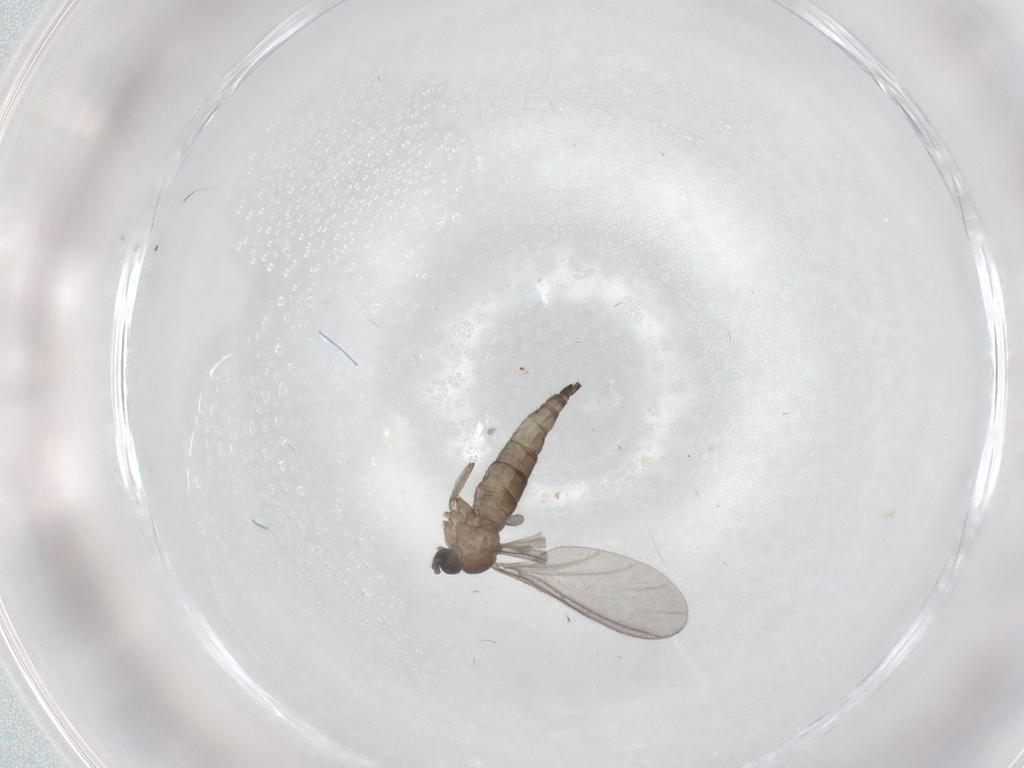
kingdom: Animalia
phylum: Arthropoda
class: Insecta
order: Diptera
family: Sciaridae
